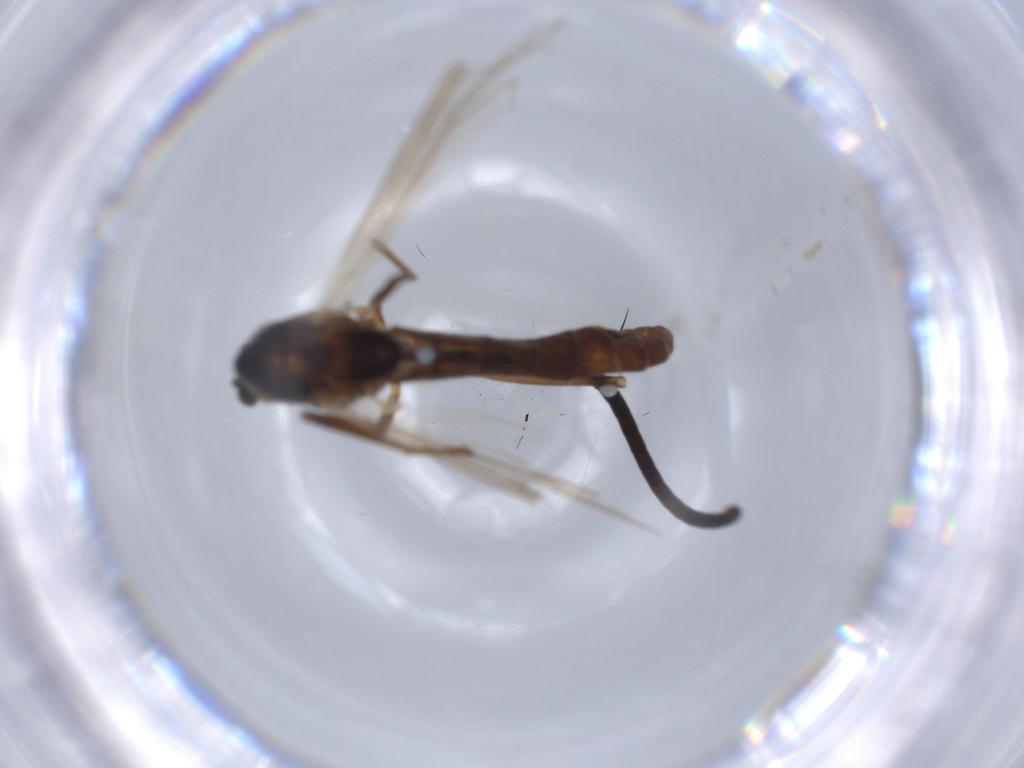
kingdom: Animalia
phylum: Arthropoda
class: Insecta
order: Diptera
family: Chironomidae
